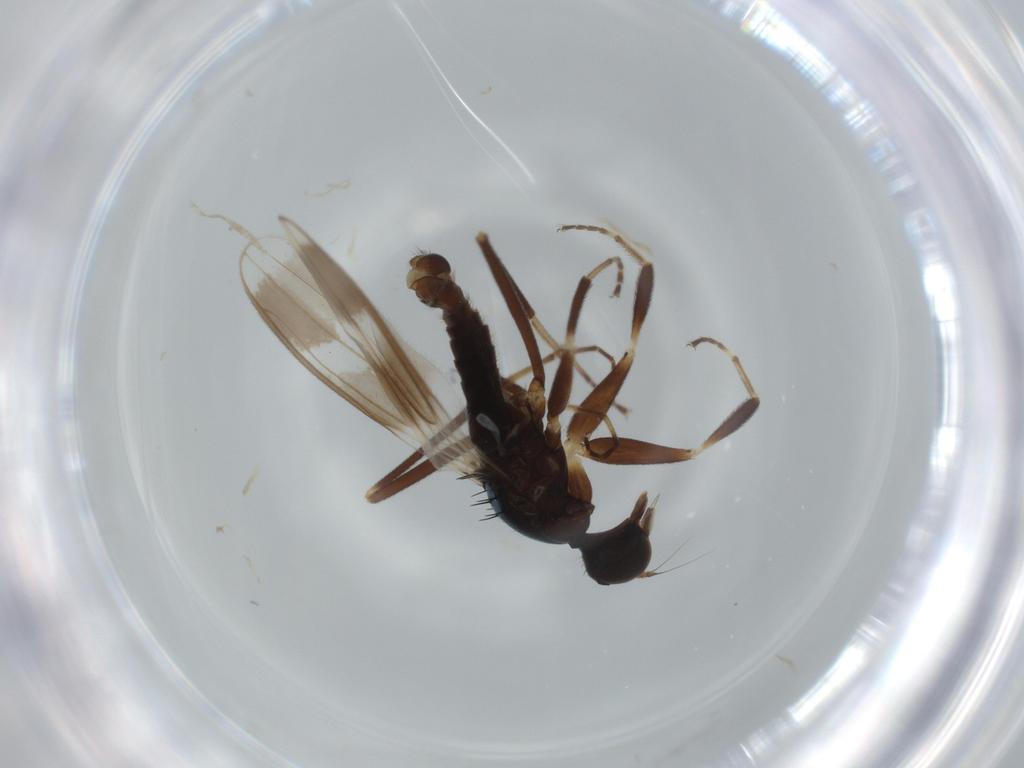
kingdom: Animalia
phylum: Arthropoda
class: Insecta
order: Diptera
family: Hybotidae
